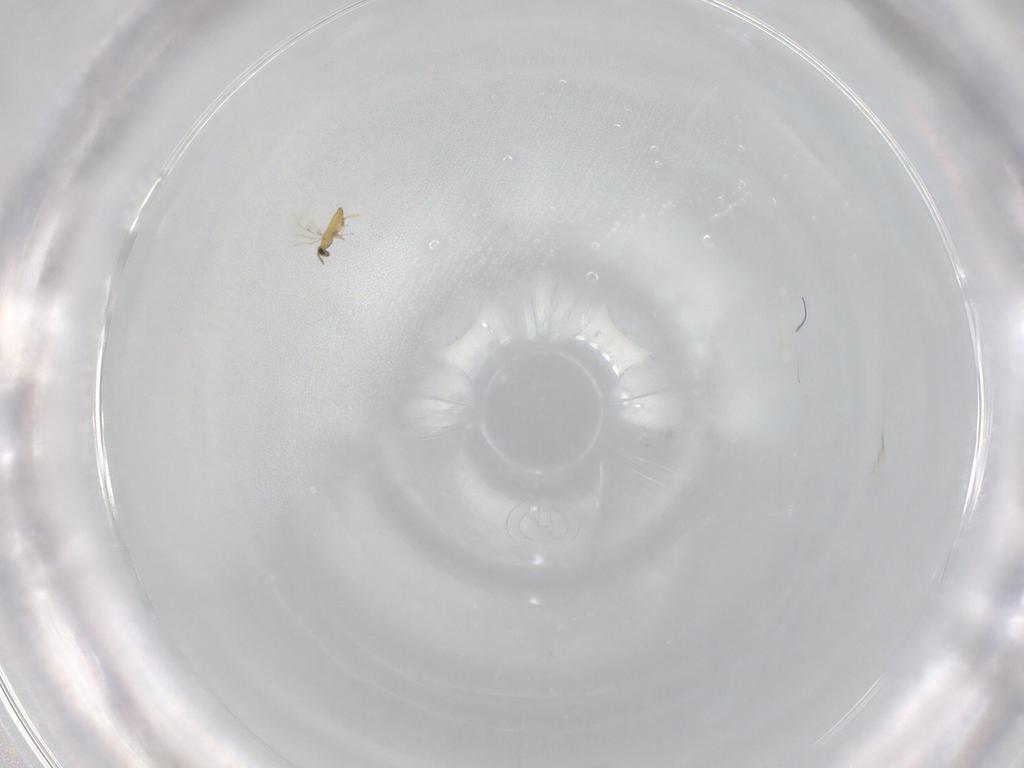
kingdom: Animalia
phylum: Arthropoda
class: Insecta
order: Hymenoptera
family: Trichogrammatidae
